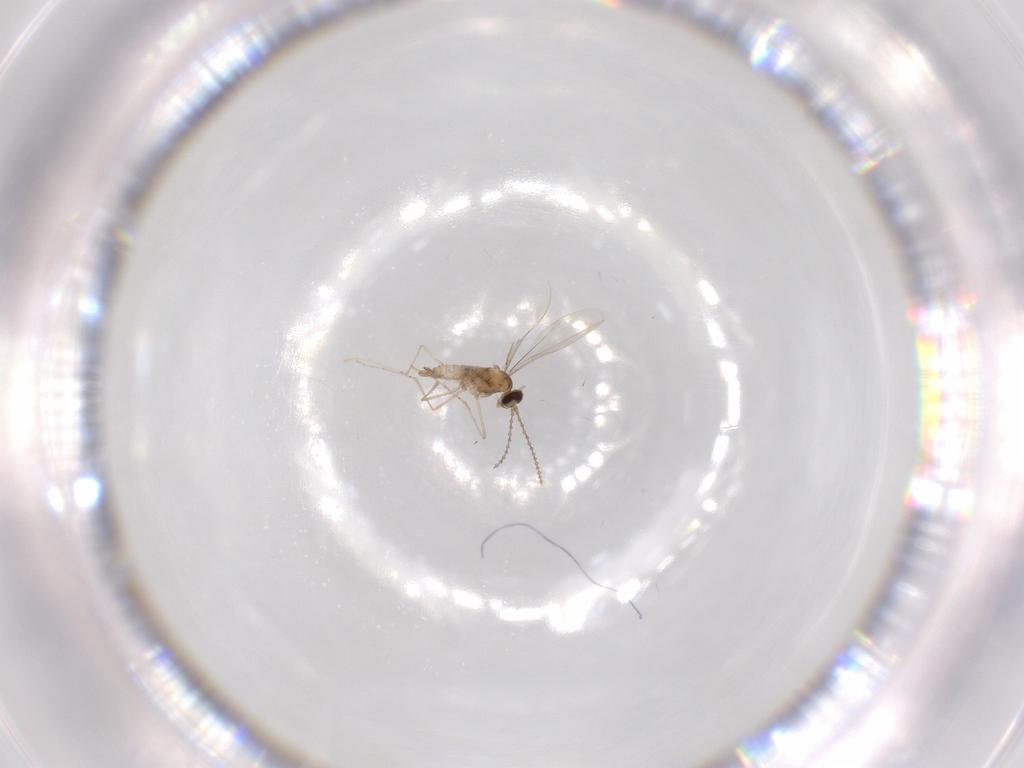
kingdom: Animalia
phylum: Arthropoda
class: Insecta
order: Diptera
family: Cecidomyiidae
